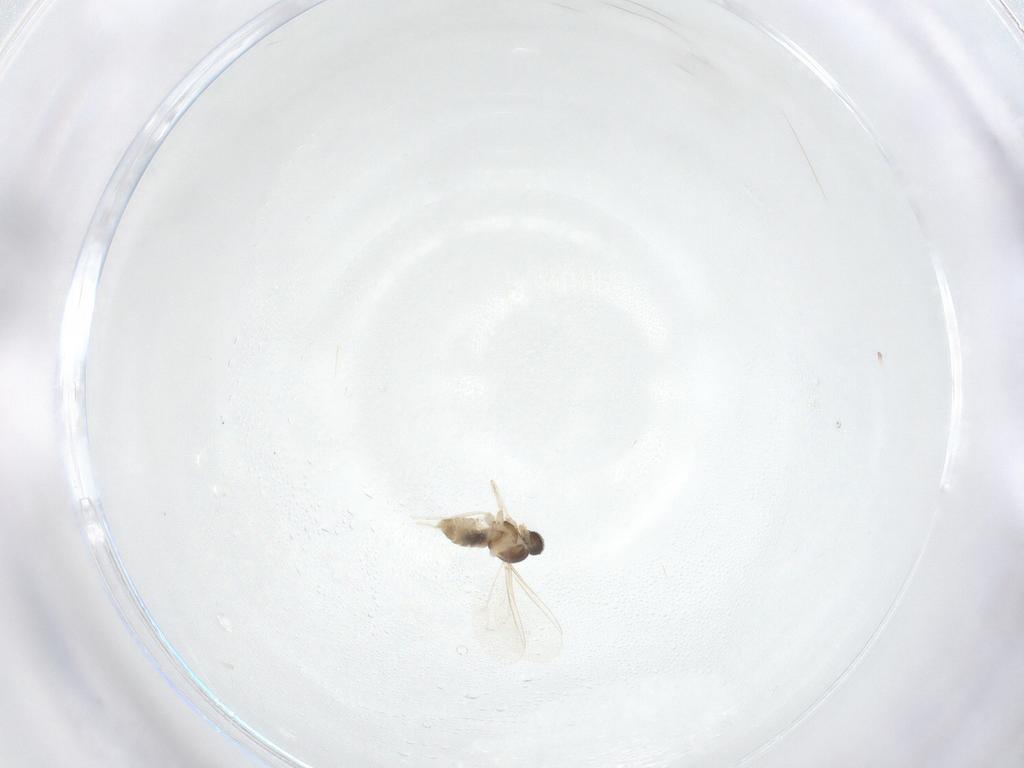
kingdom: Animalia
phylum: Arthropoda
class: Insecta
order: Diptera
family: Cecidomyiidae
